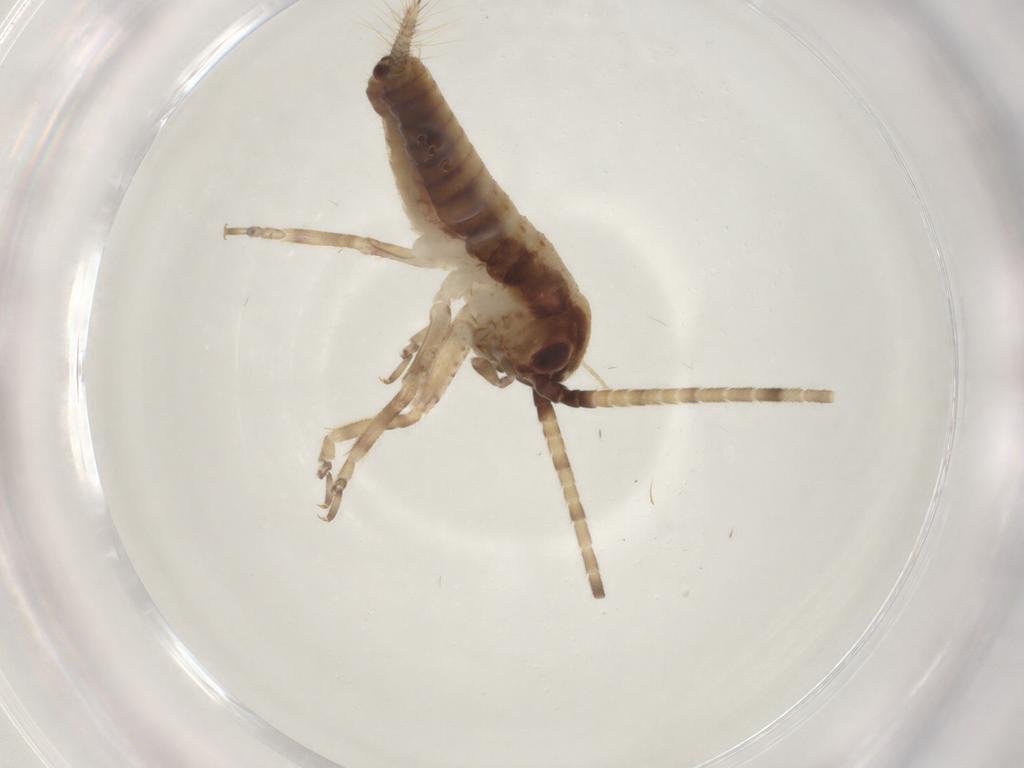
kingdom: Animalia
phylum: Arthropoda
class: Insecta
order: Orthoptera
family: Gryllidae
